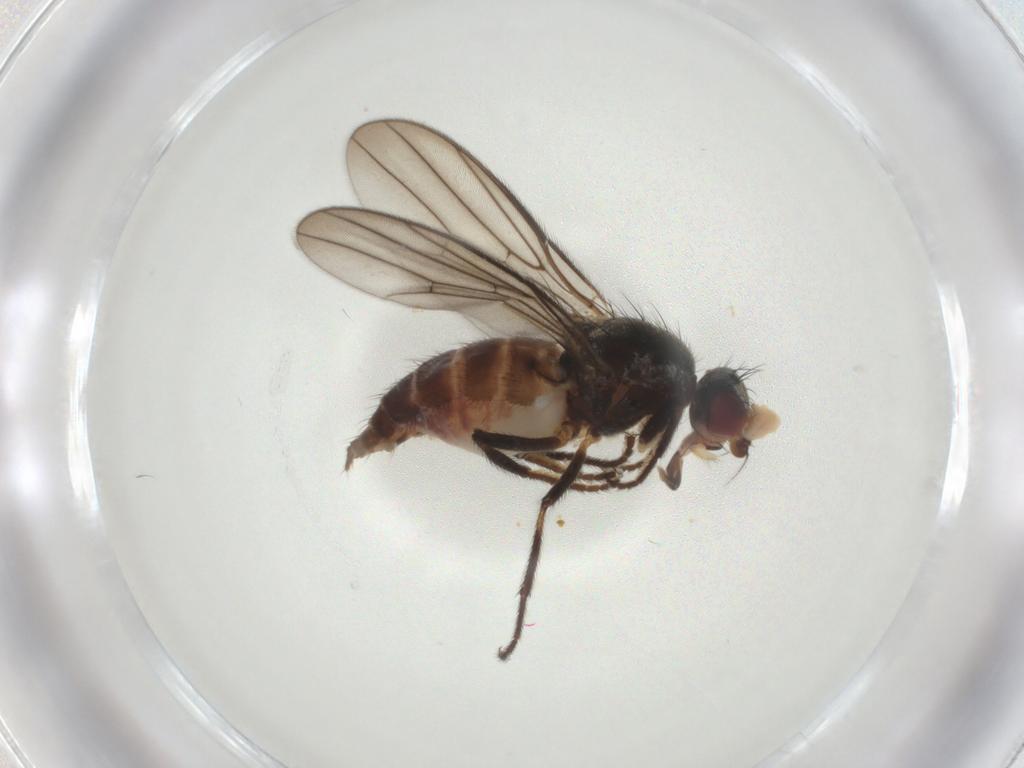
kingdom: Animalia
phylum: Arthropoda
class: Insecta
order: Diptera
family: Chloropidae
